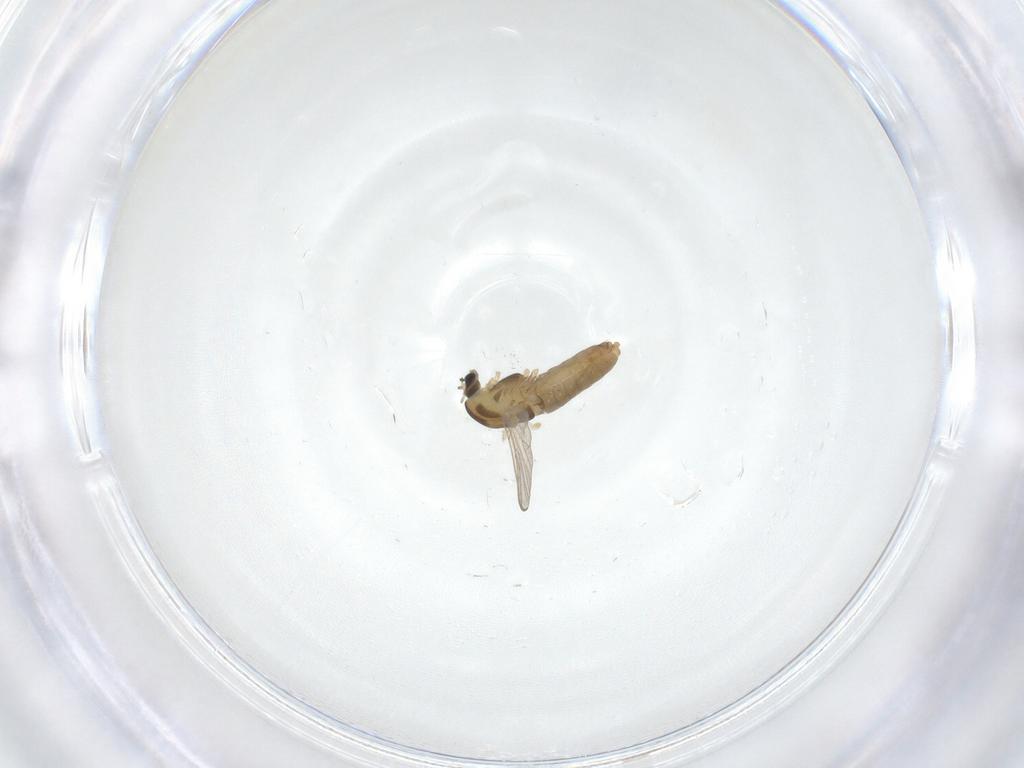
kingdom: Animalia
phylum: Arthropoda
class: Insecta
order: Diptera
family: Chironomidae
